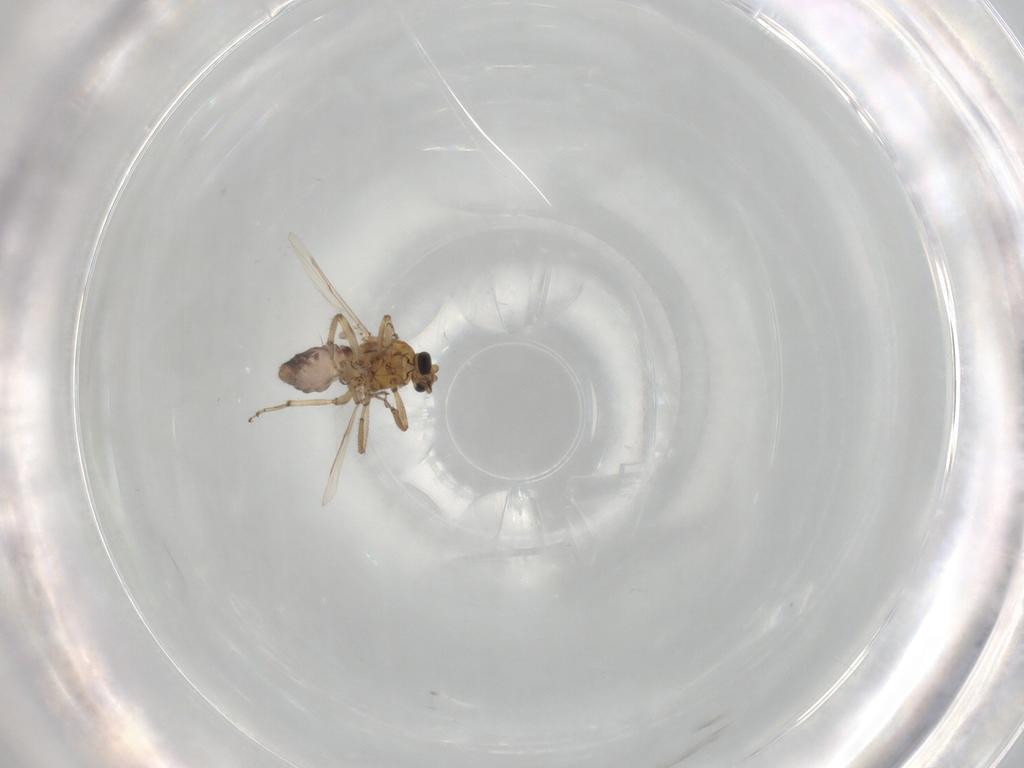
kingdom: Animalia
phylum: Arthropoda
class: Insecta
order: Diptera
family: Ceratopogonidae
